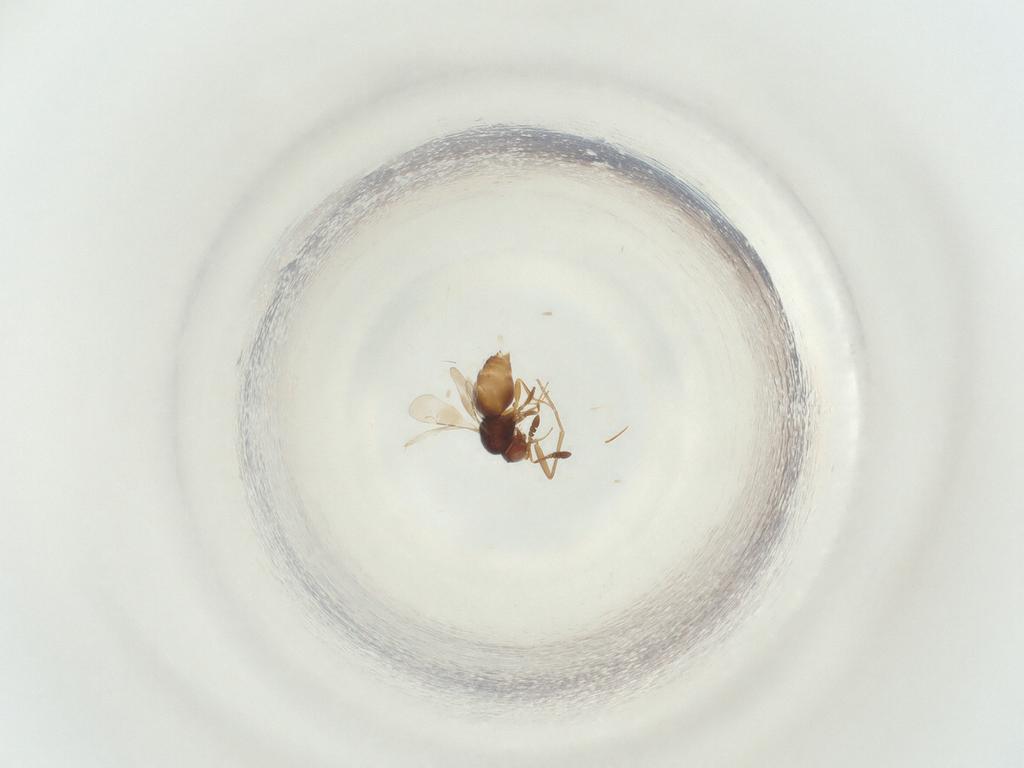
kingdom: Animalia
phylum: Arthropoda
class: Insecta
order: Diptera
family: Sciaridae
